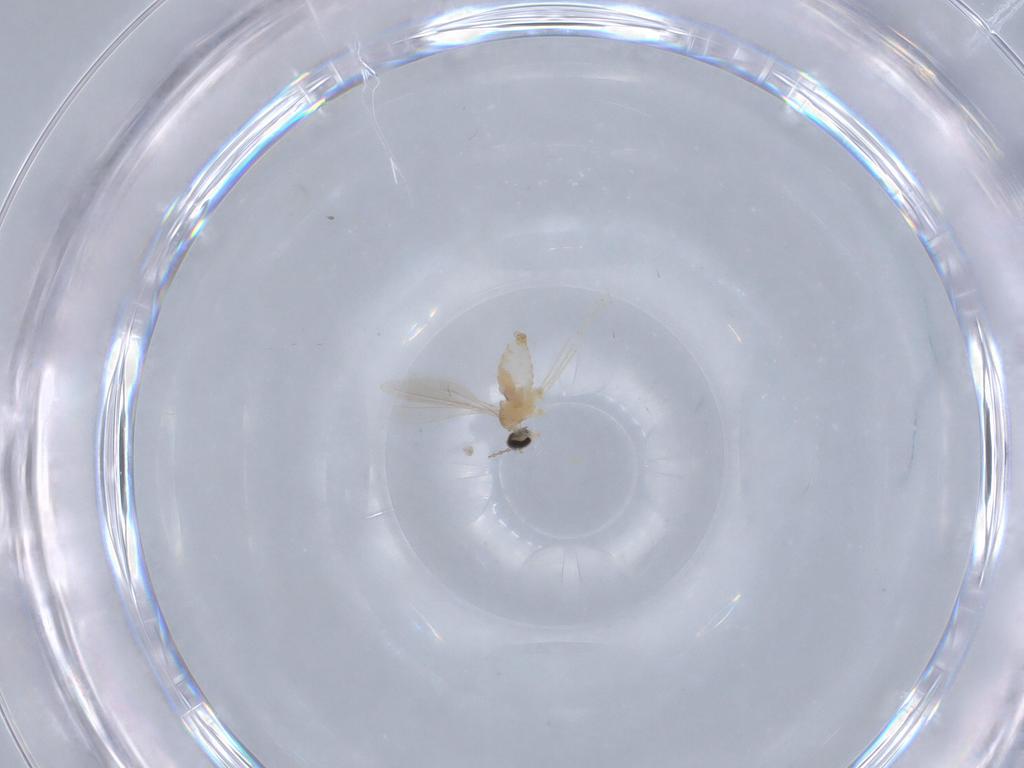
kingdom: Animalia
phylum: Arthropoda
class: Insecta
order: Diptera
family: Cecidomyiidae
